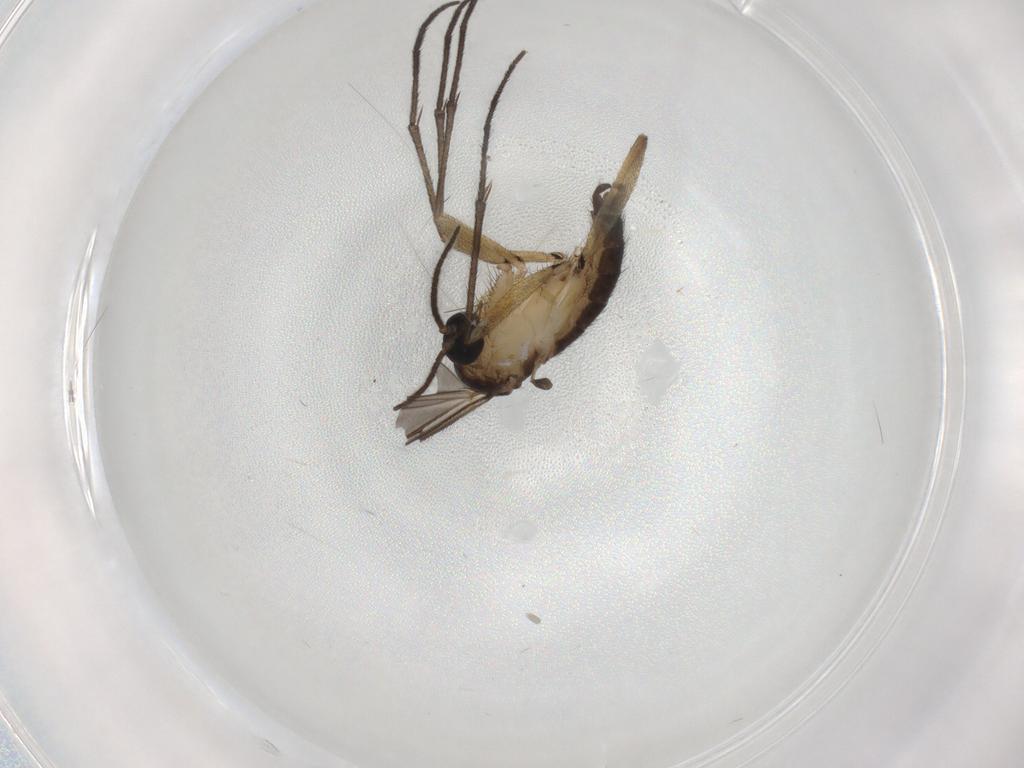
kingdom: Animalia
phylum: Arthropoda
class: Insecta
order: Diptera
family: Sciaridae
